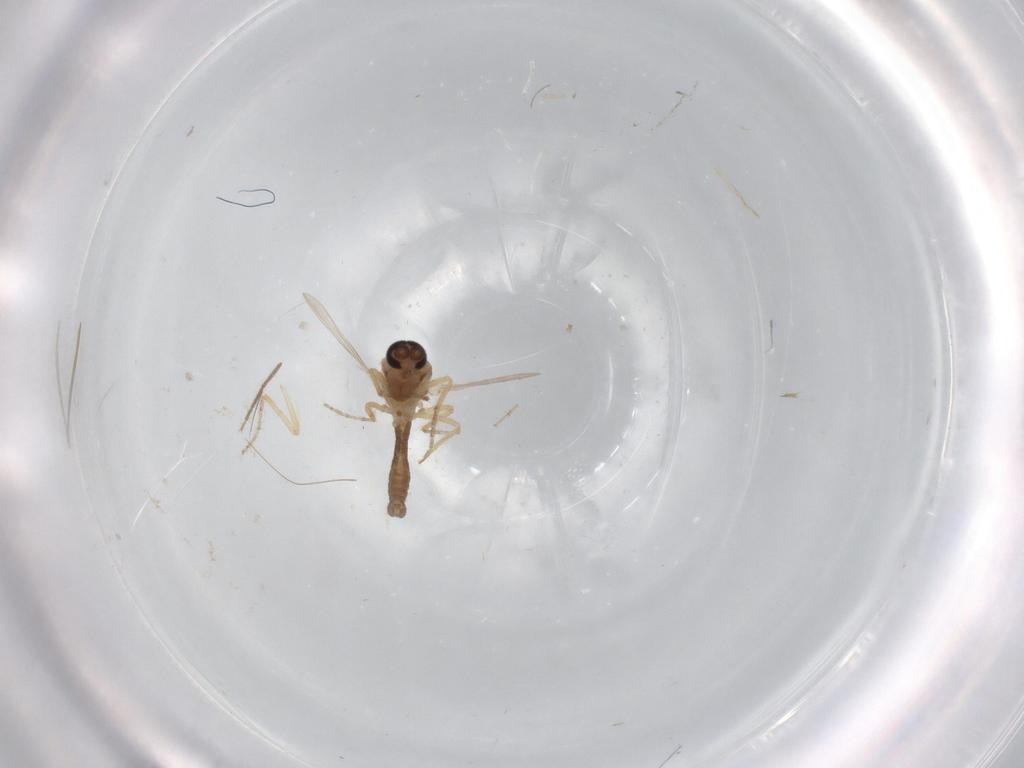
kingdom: Animalia
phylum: Arthropoda
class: Insecta
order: Diptera
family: Ceratopogonidae
